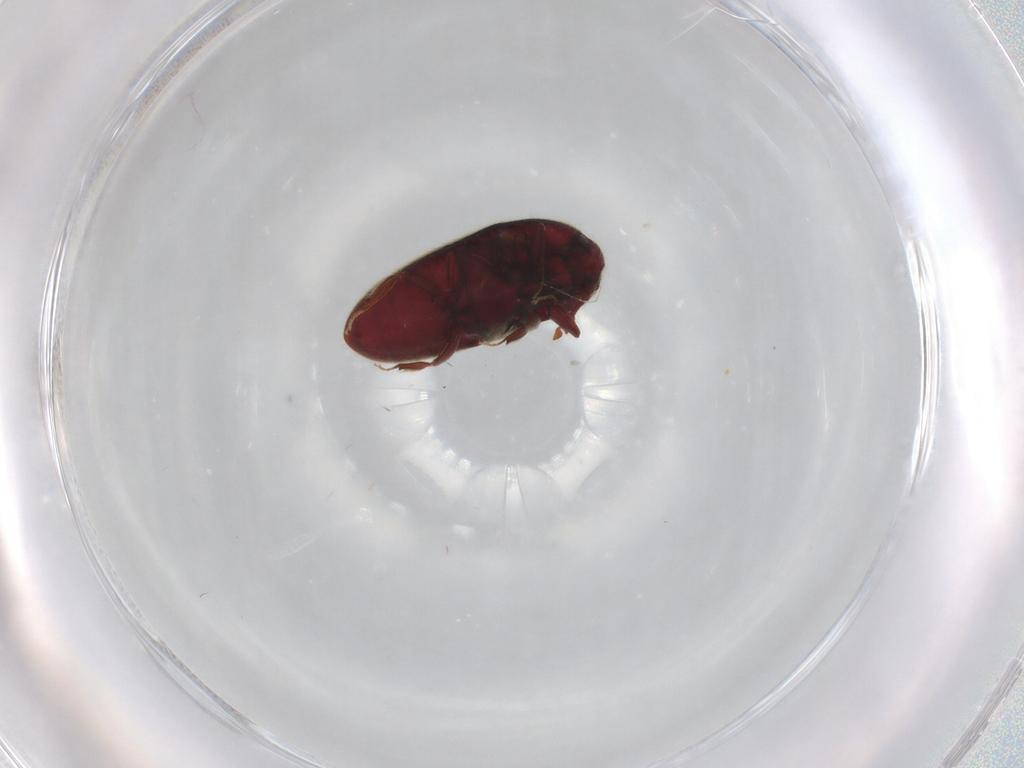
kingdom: Animalia
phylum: Arthropoda
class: Insecta
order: Coleoptera
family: Throscidae
